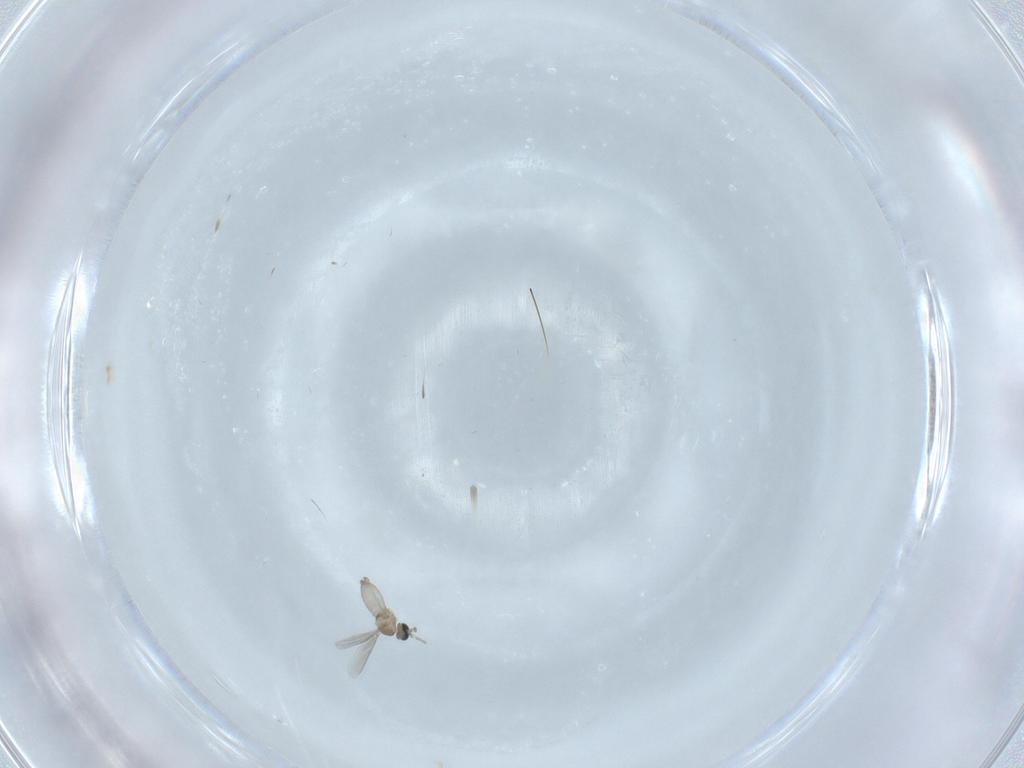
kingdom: Animalia
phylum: Arthropoda
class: Insecta
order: Diptera
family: Cecidomyiidae
